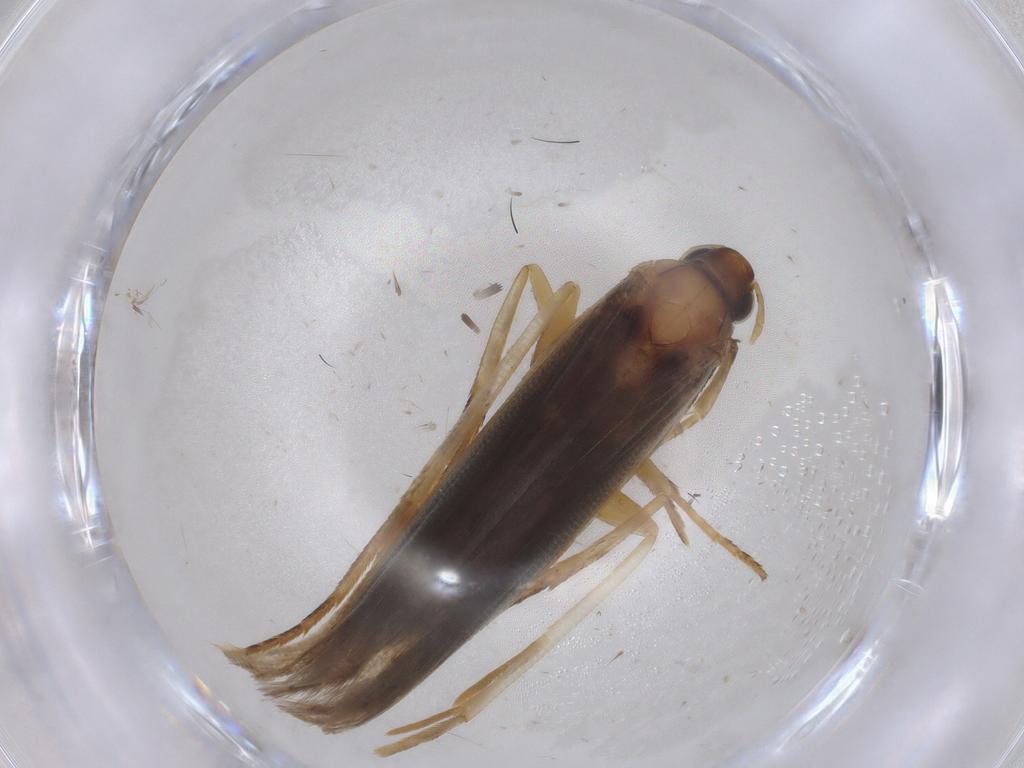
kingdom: Animalia
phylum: Arthropoda
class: Insecta
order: Lepidoptera
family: Gelechiidae
